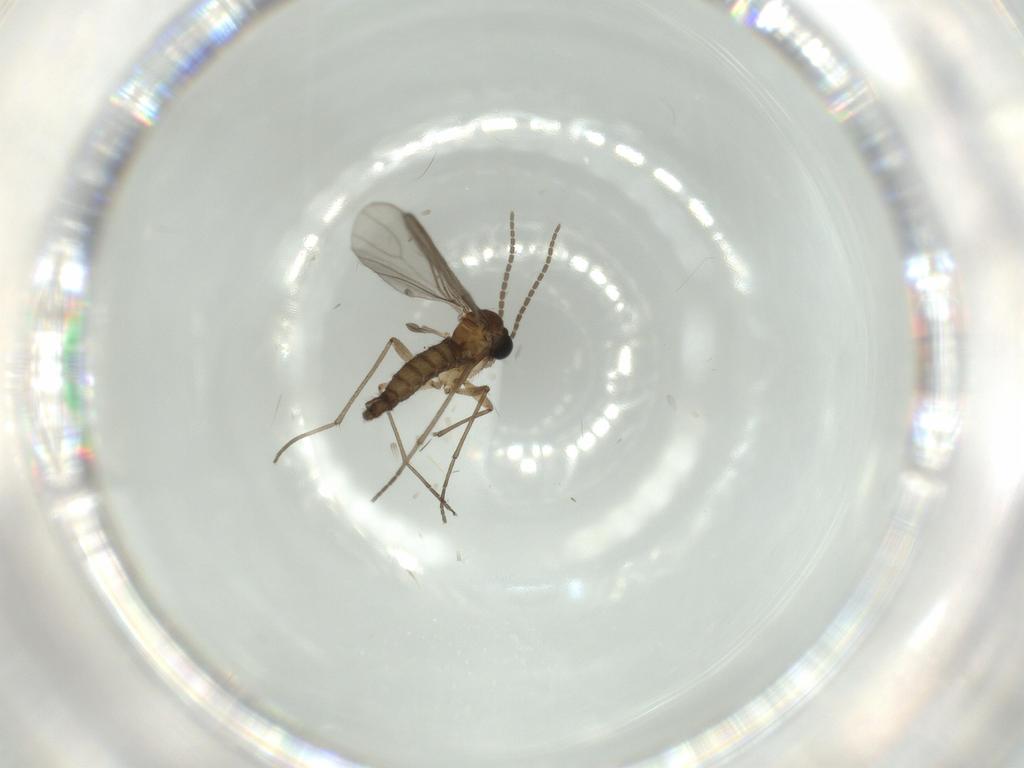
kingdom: Animalia
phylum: Arthropoda
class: Insecta
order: Diptera
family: Sciaridae
